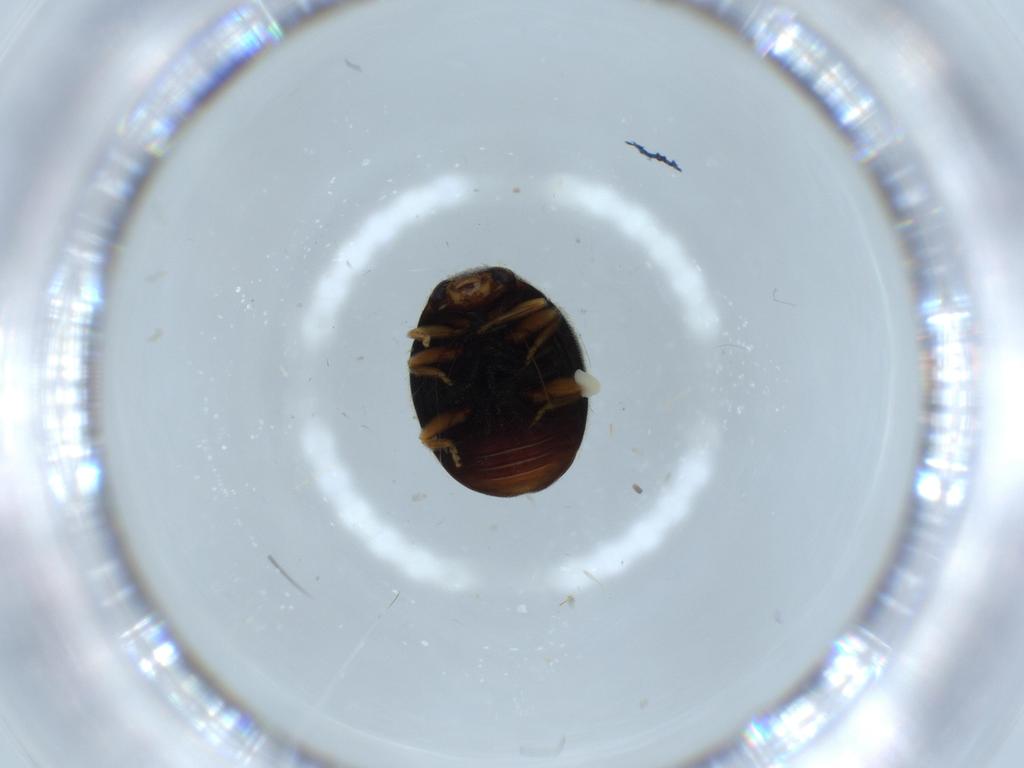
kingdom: Animalia
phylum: Arthropoda
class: Insecta
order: Coleoptera
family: Coccinellidae
